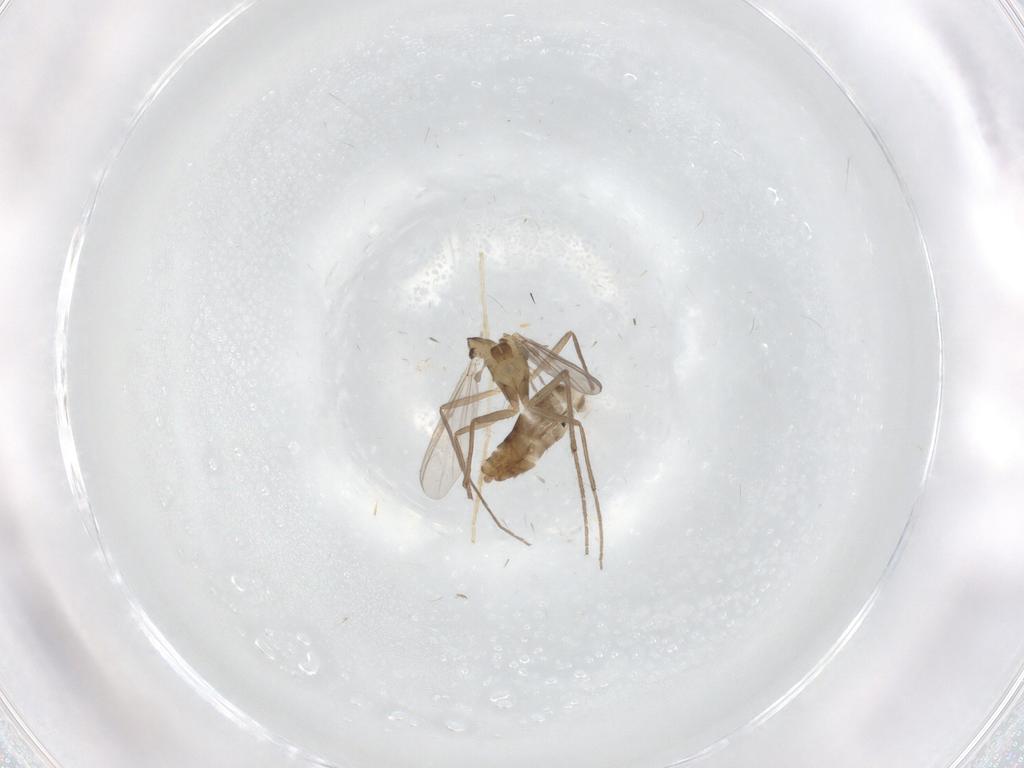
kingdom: Animalia
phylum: Arthropoda
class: Insecta
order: Diptera
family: Chironomidae
